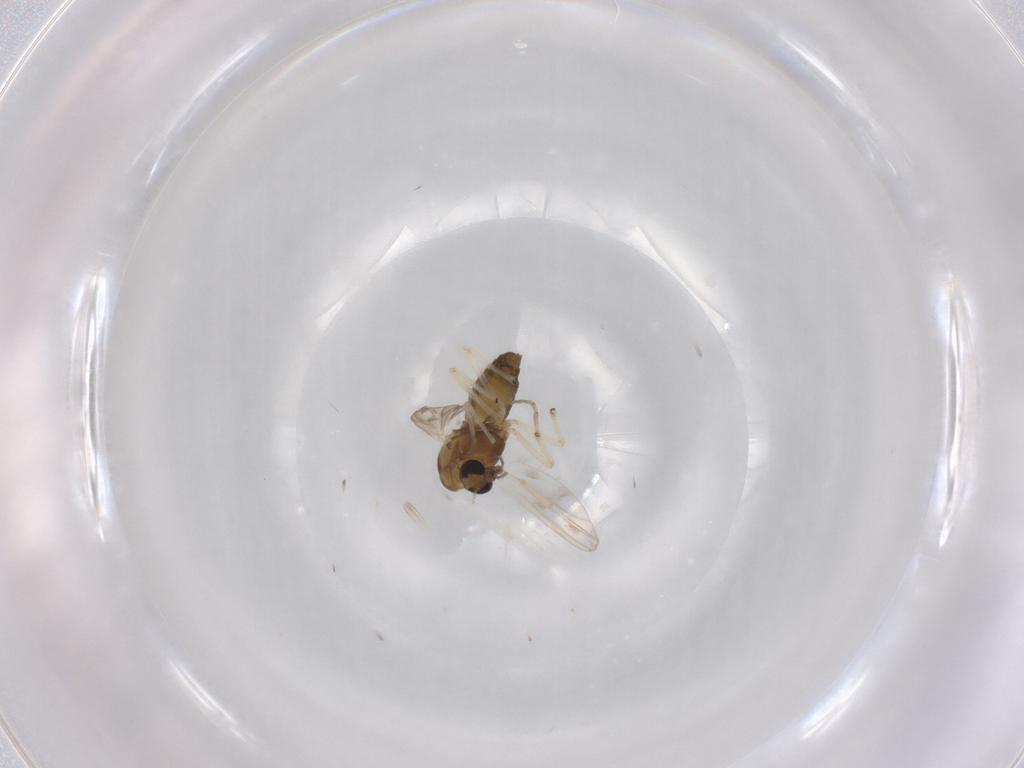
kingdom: Animalia
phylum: Arthropoda
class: Insecta
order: Diptera
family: Chironomidae
